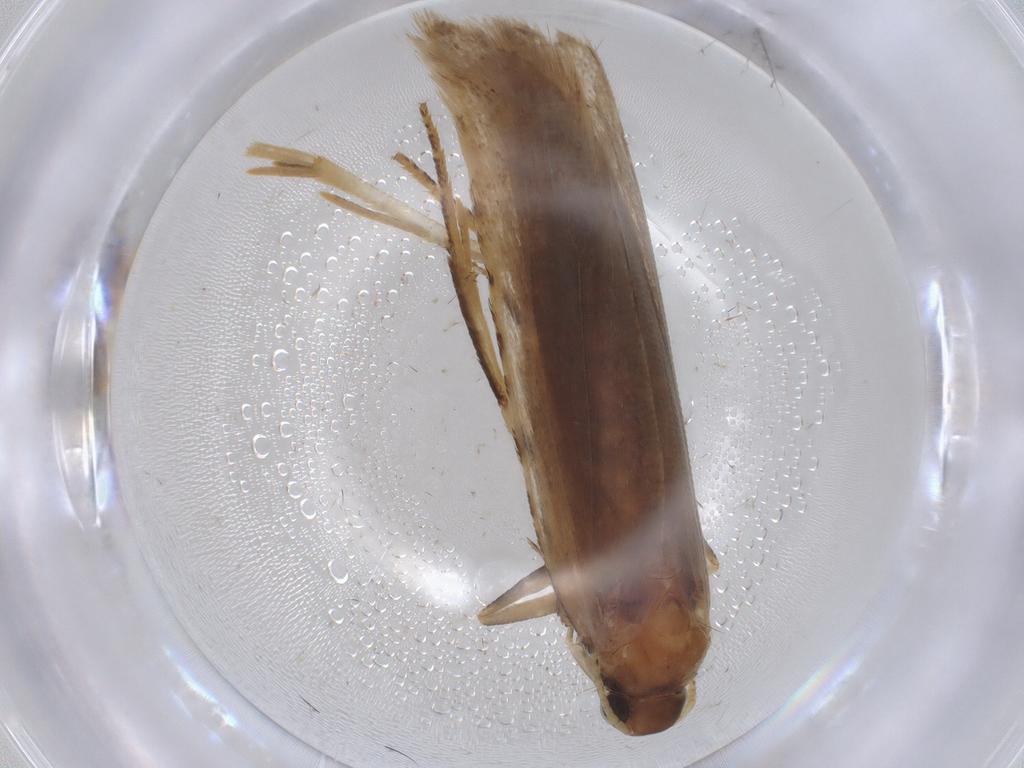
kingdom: Animalia
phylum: Arthropoda
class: Insecta
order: Lepidoptera
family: Gelechiidae
